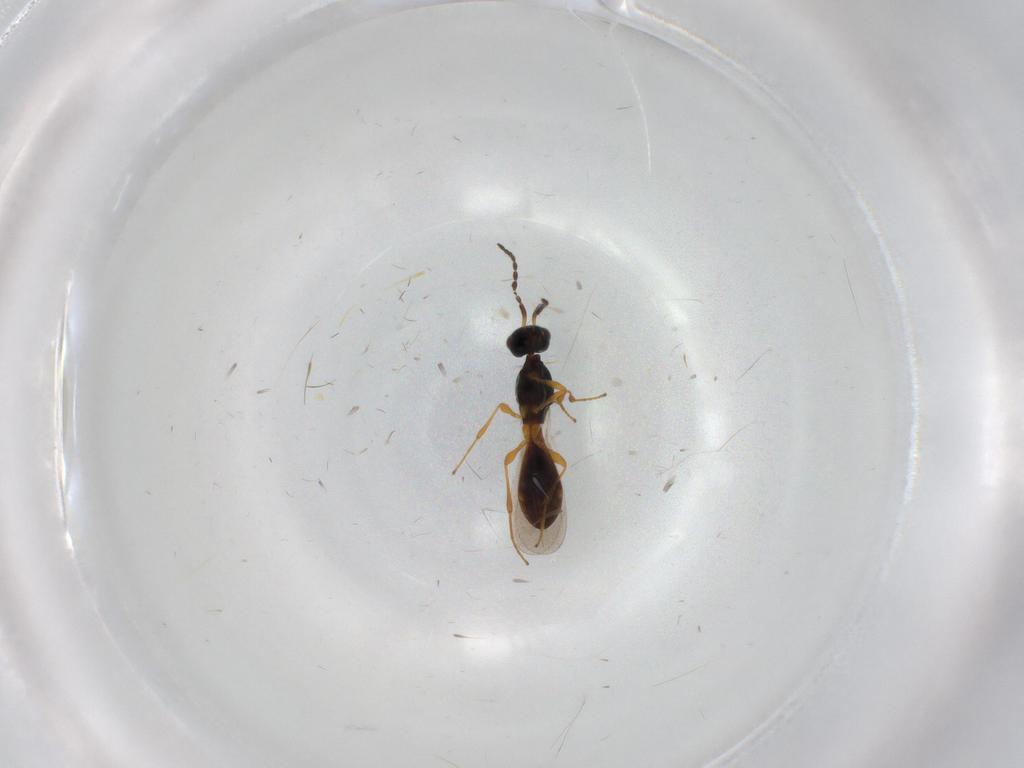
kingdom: Animalia
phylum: Arthropoda
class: Insecta
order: Hymenoptera
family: Platygastridae
